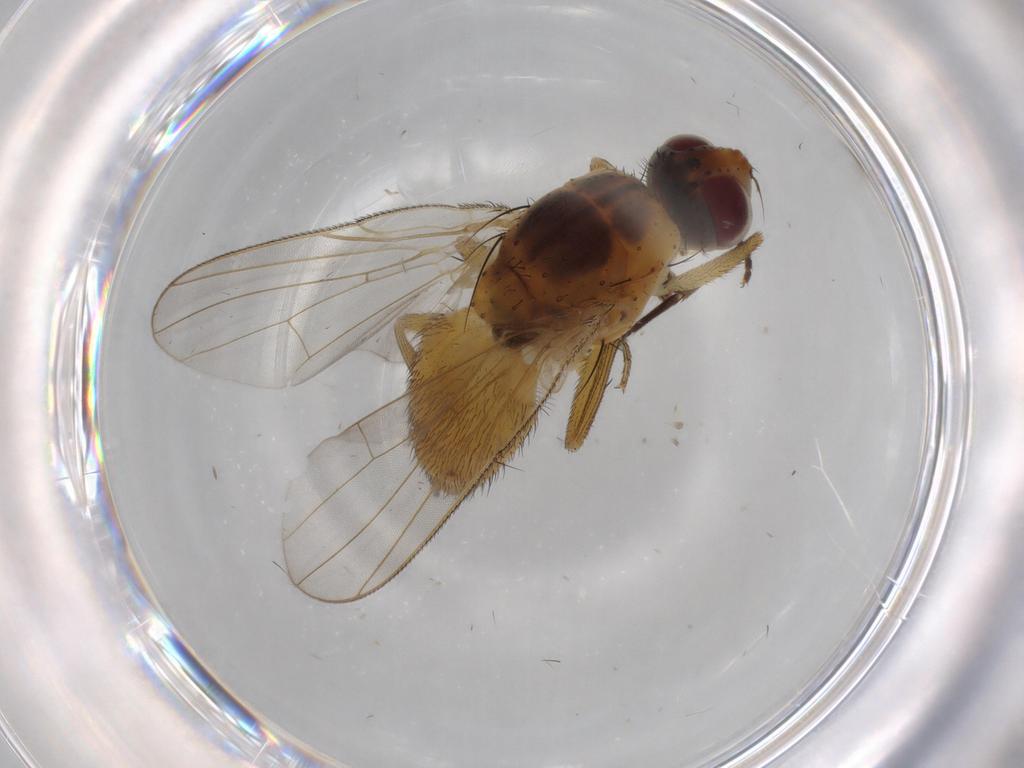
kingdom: Animalia
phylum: Arthropoda
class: Insecta
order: Diptera
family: Muscidae
